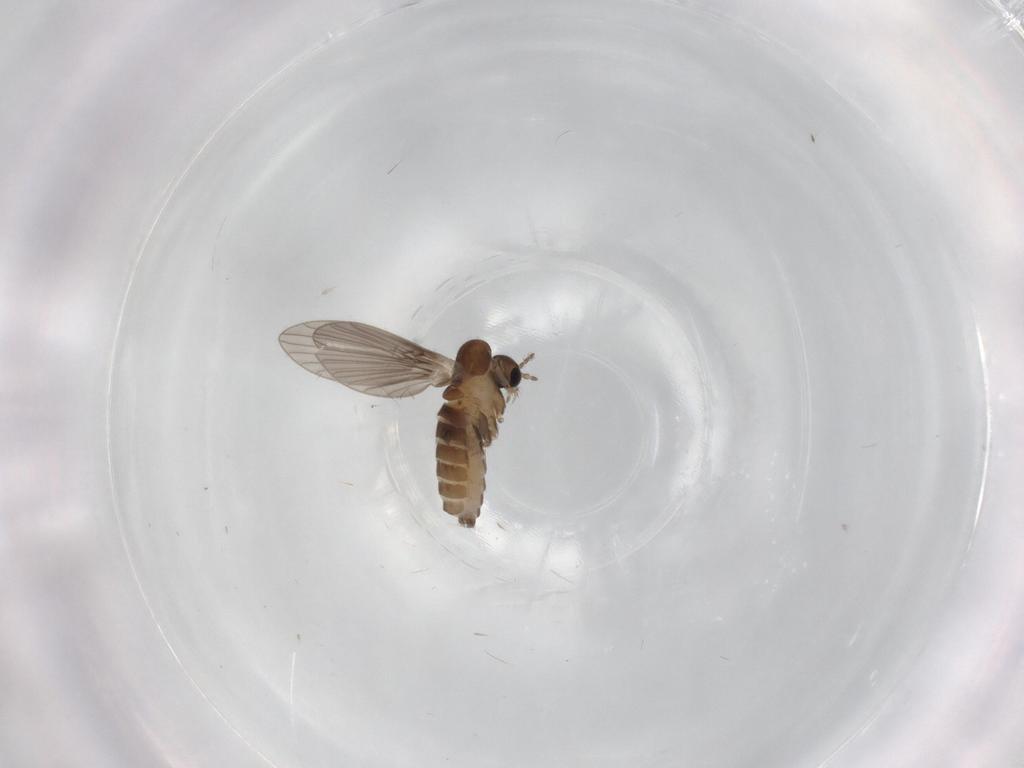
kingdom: Animalia
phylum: Arthropoda
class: Insecta
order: Diptera
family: Psychodidae
